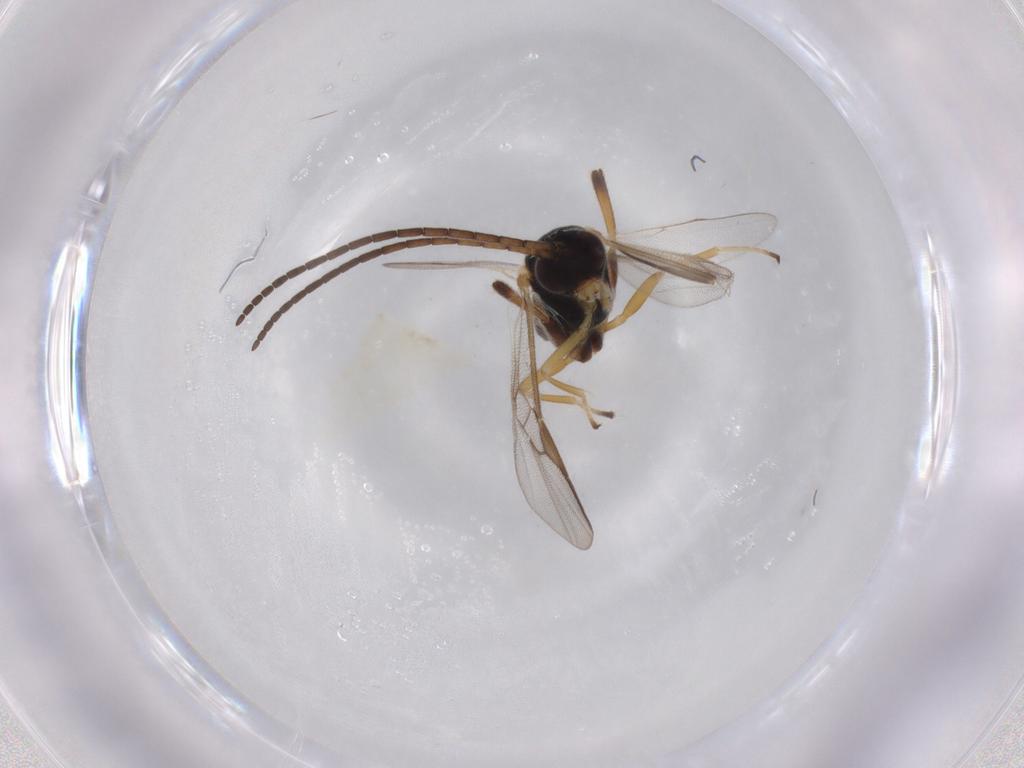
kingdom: Animalia
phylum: Arthropoda
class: Insecta
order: Hymenoptera
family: Braconidae
